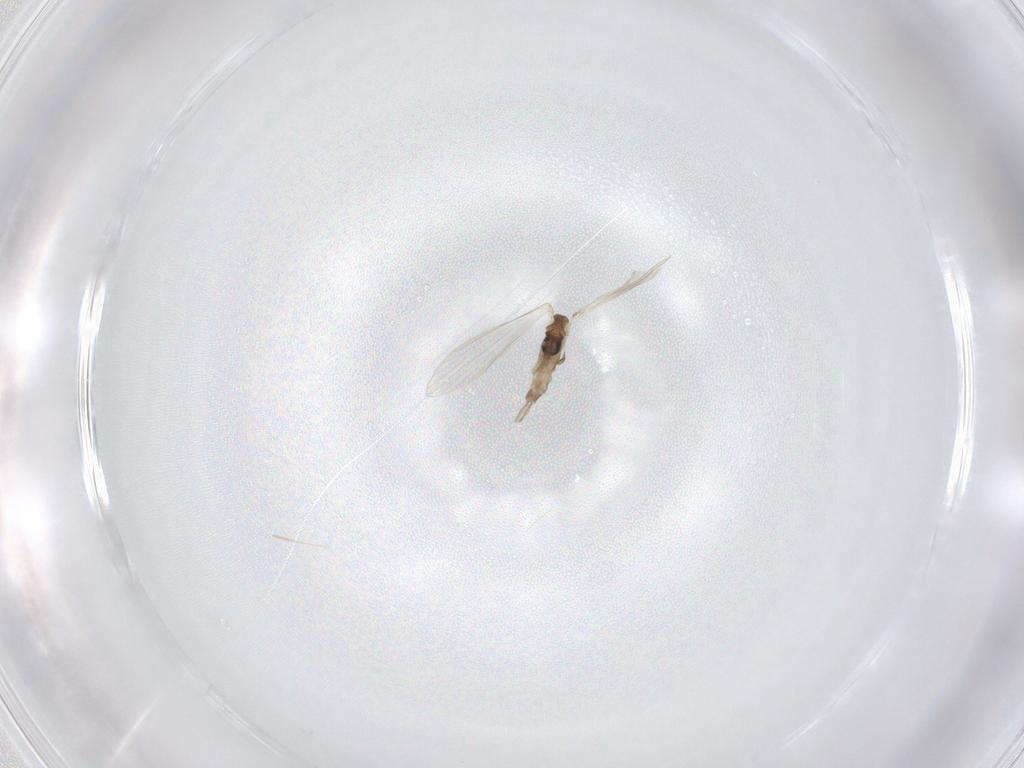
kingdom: Animalia
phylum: Arthropoda
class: Insecta
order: Diptera
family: Psychodidae
